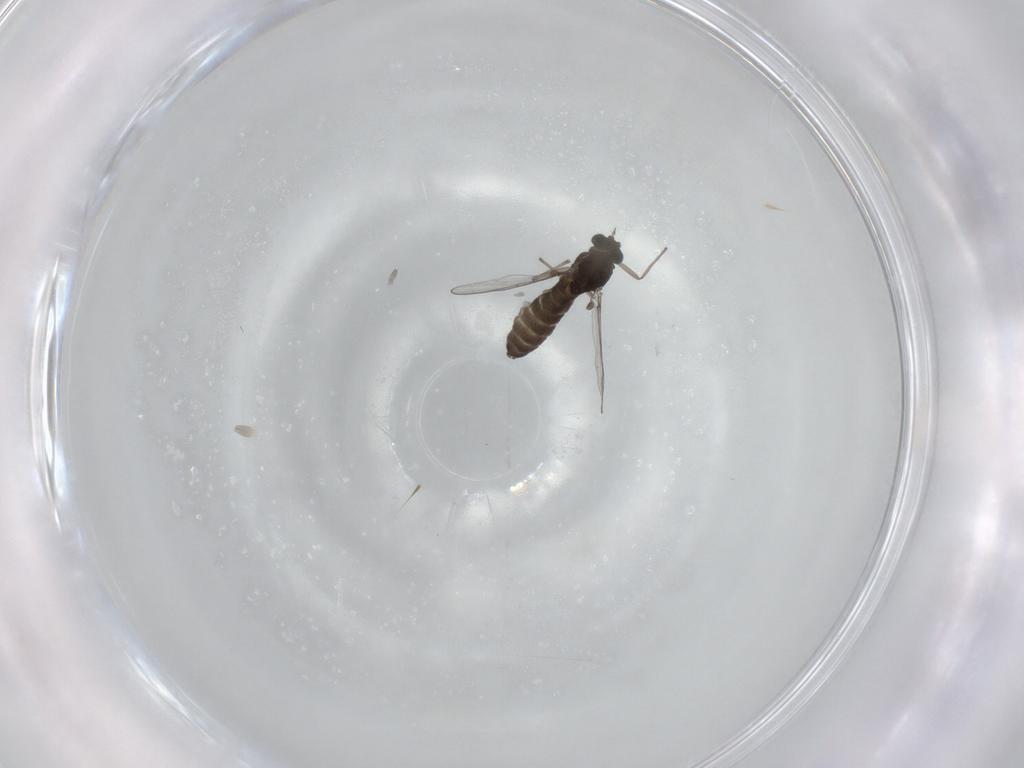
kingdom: Animalia
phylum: Arthropoda
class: Insecta
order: Diptera
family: Chironomidae
